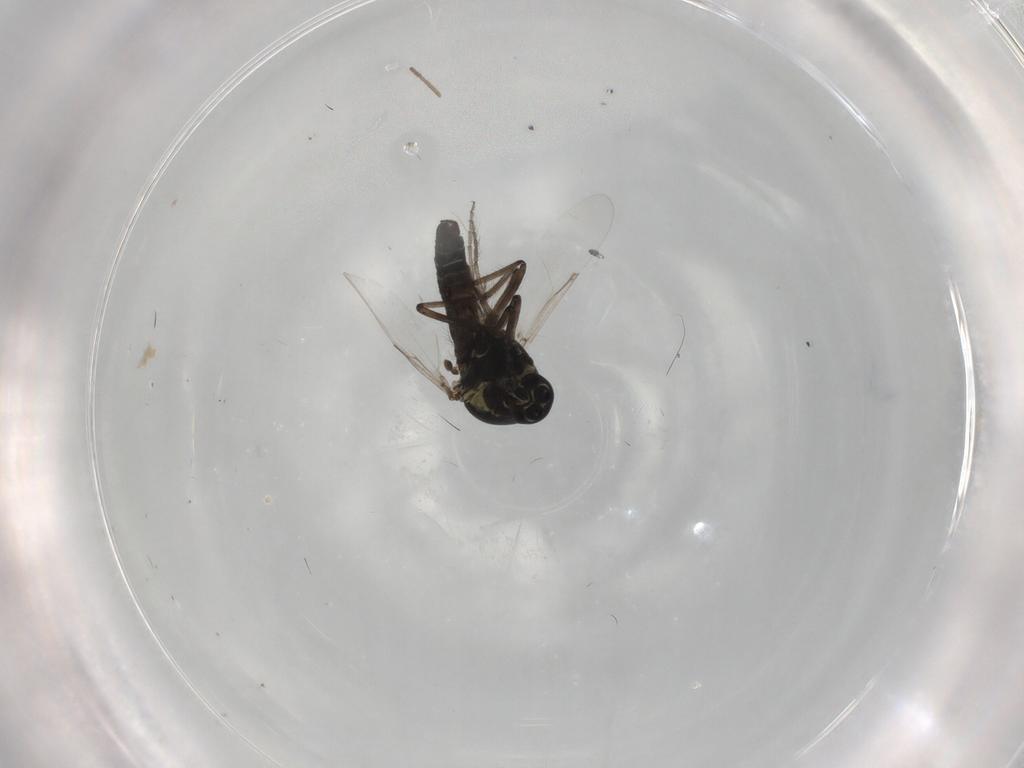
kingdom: Animalia
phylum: Arthropoda
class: Insecta
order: Diptera
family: Ceratopogonidae
